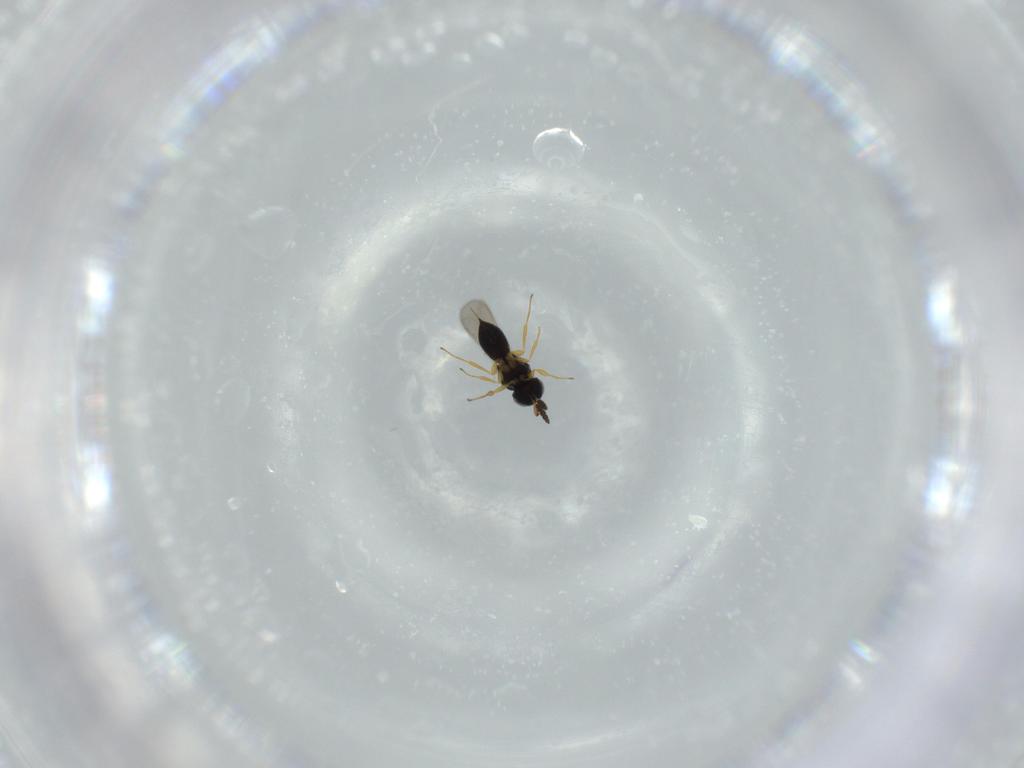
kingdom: Animalia
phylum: Arthropoda
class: Insecta
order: Hymenoptera
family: Scelionidae
